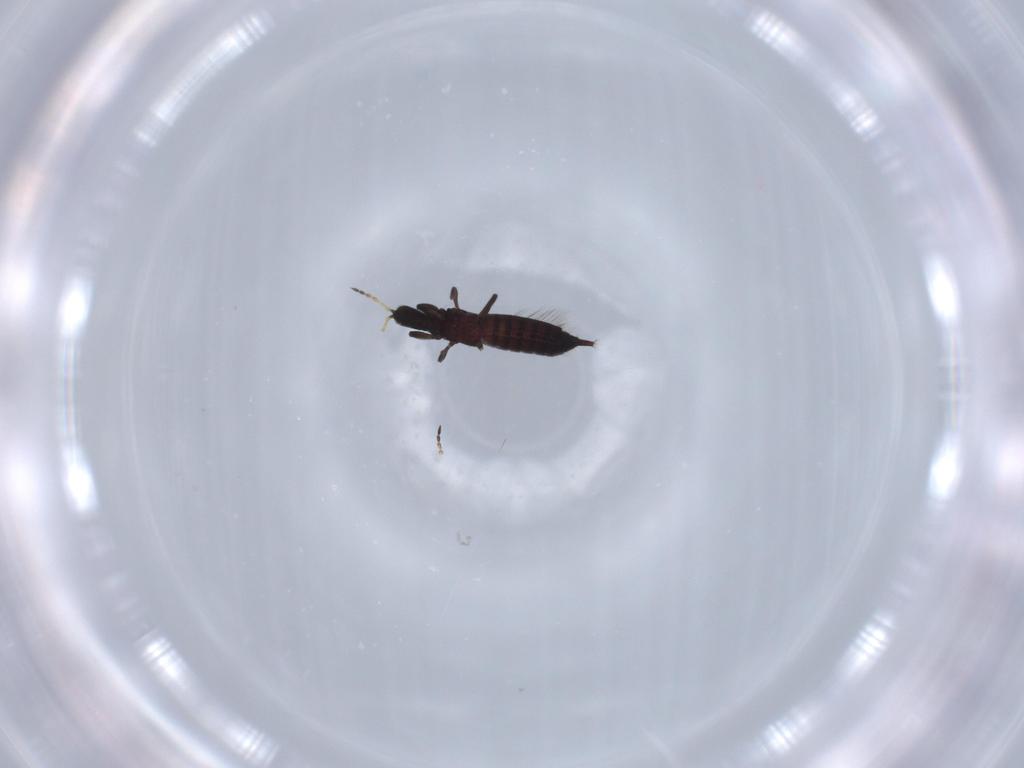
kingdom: Animalia
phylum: Arthropoda
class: Insecta
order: Thysanoptera
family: Phlaeothripidae
